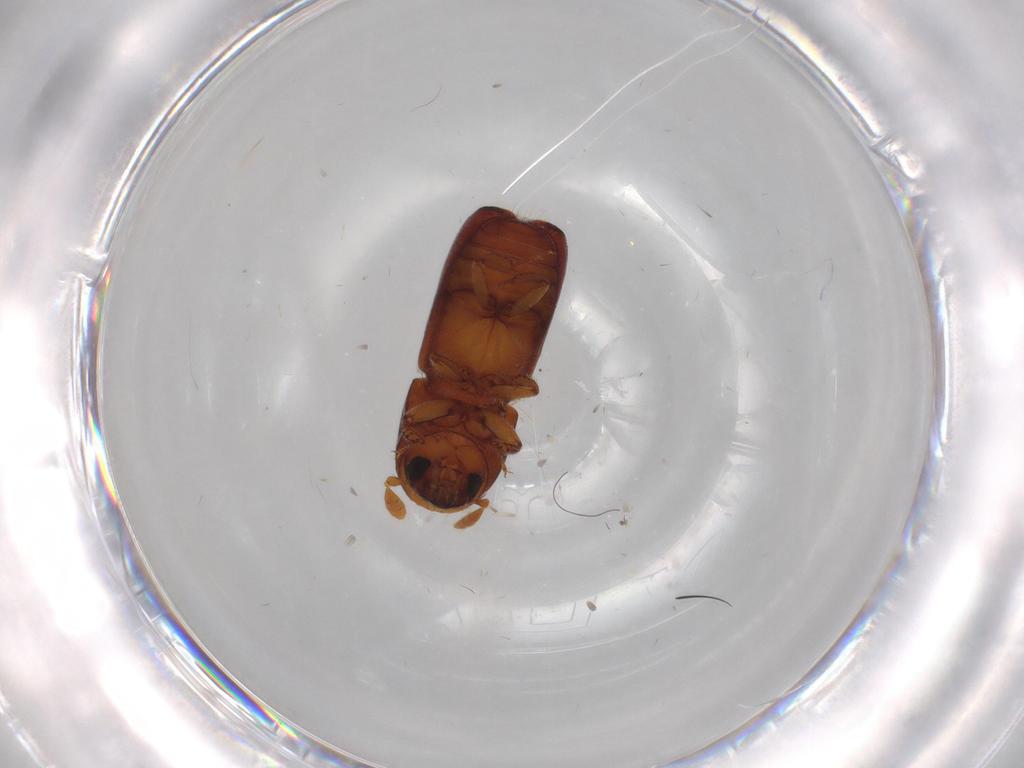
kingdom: Animalia
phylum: Arthropoda
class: Insecta
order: Coleoptera
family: Curculionidae
